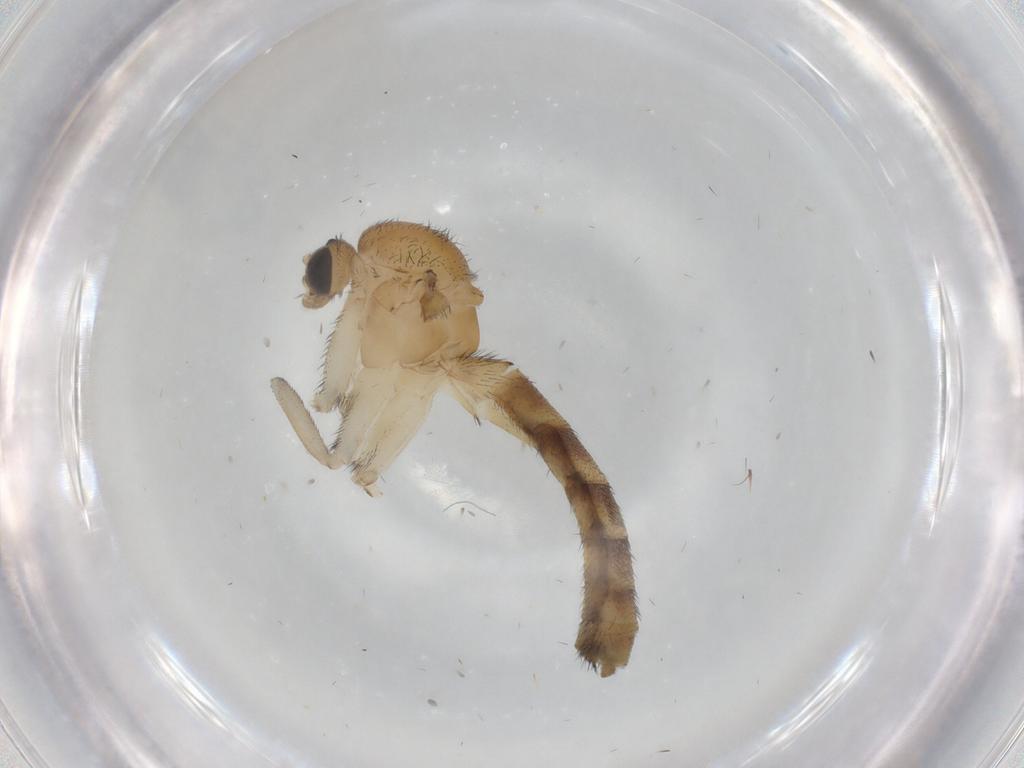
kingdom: Animalia
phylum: Arthropoda
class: Insecta
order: Diptera
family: Keroplatidae
